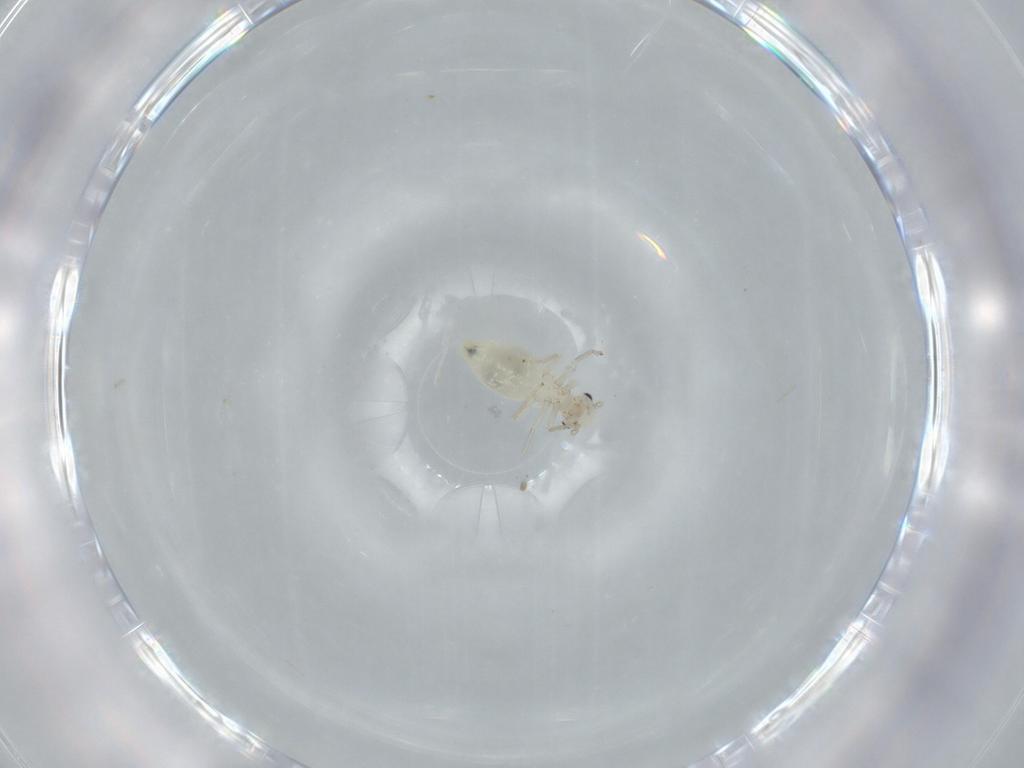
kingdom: Animalia
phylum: Arthropoda
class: Insecta
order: Psocodea
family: Caeciliusidae
